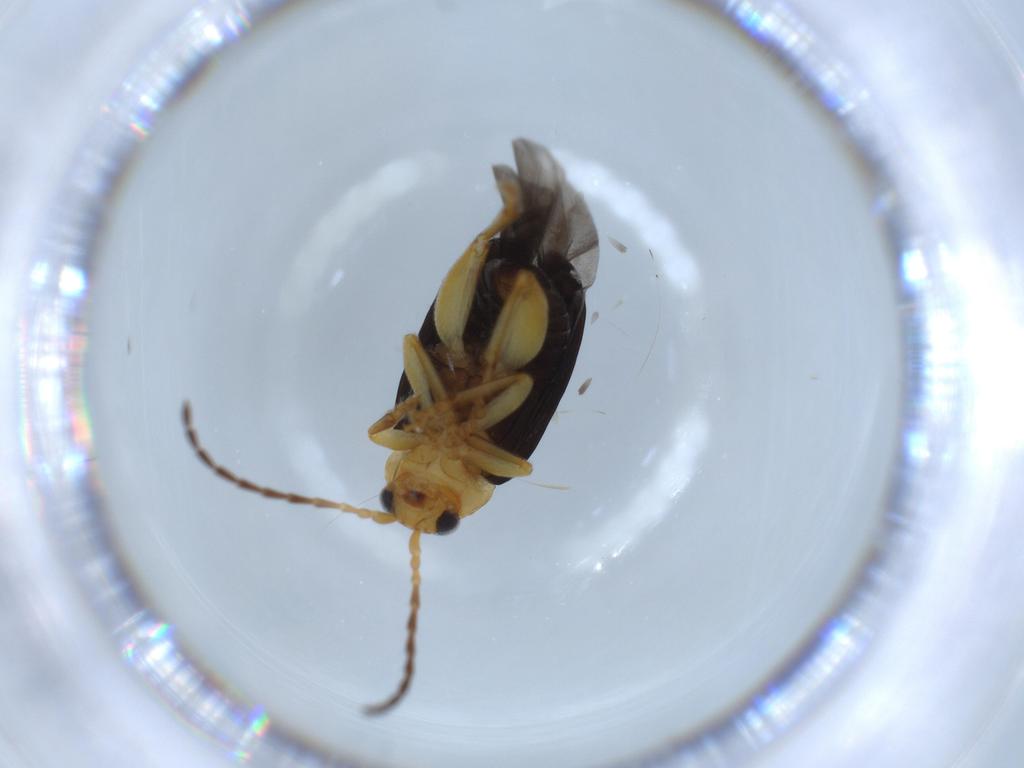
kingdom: Animalia
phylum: Arthropoda
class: Insecta
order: Coleoptera
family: Chrysomelidae
